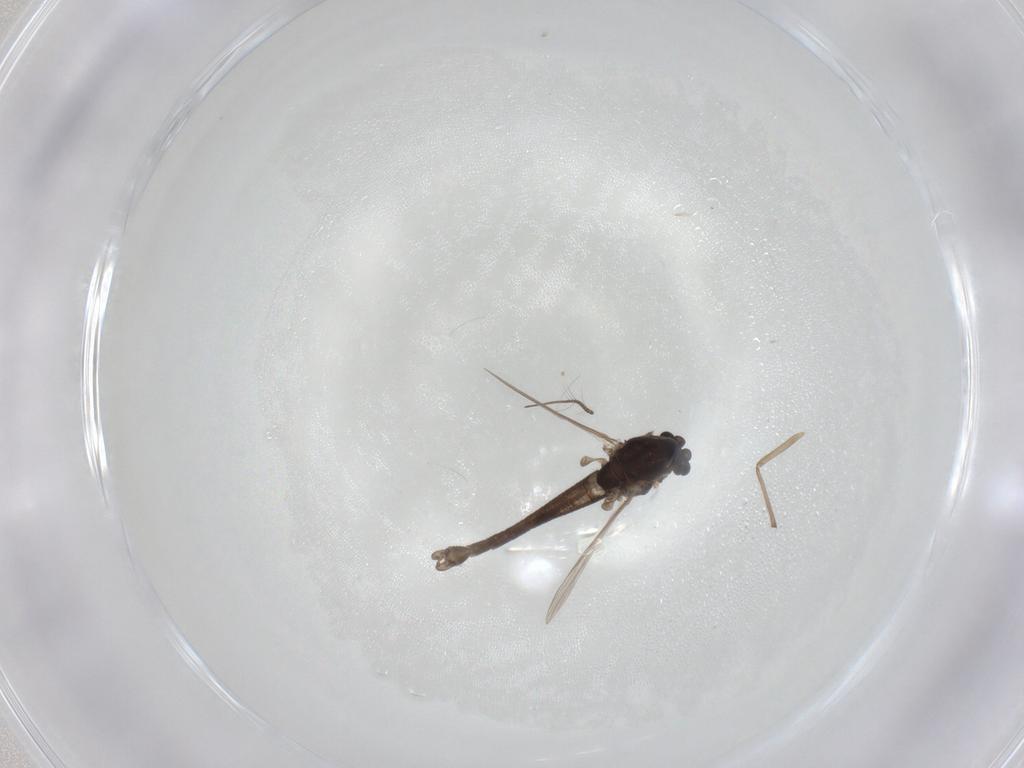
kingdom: Animalia
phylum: Arthropoda
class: Insecta
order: Diptera
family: Chironomidae
